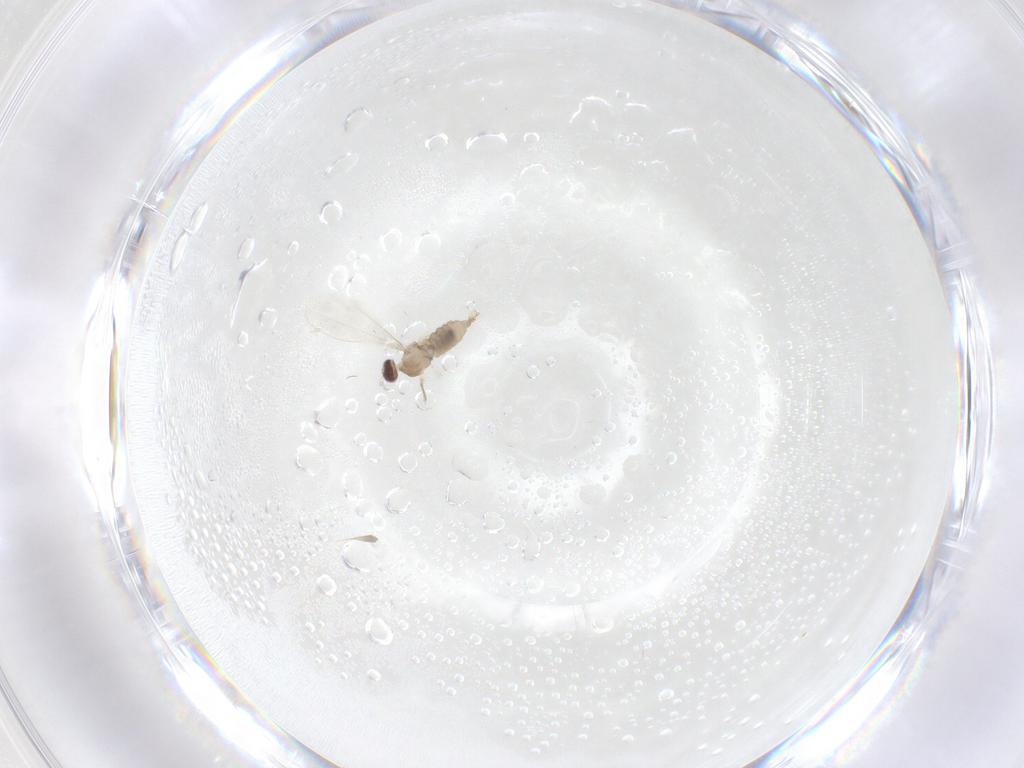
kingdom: Animalia
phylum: Arthropoda
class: Insecta
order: Diptera
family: Cecidomyiidae
